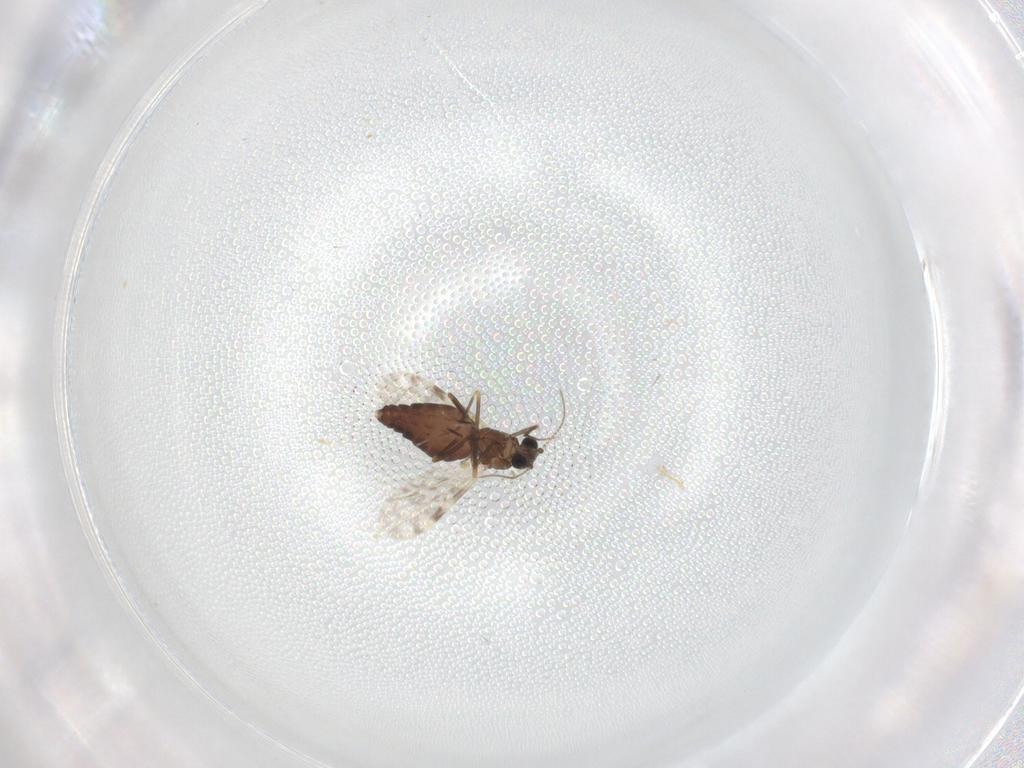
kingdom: Animalia
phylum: Arthropoda
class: Insecta
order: Diptera
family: Ceratopogonidae
